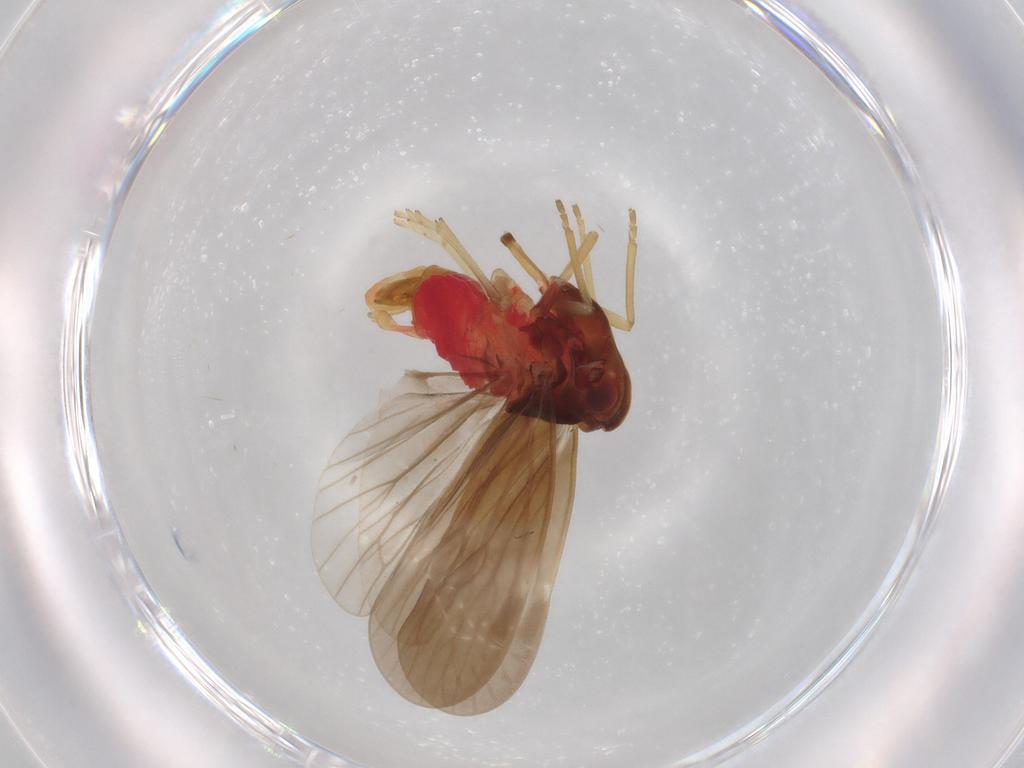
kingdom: Animalia
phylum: Arthropoda
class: Insecta
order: Hemiptera
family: Derbidae
